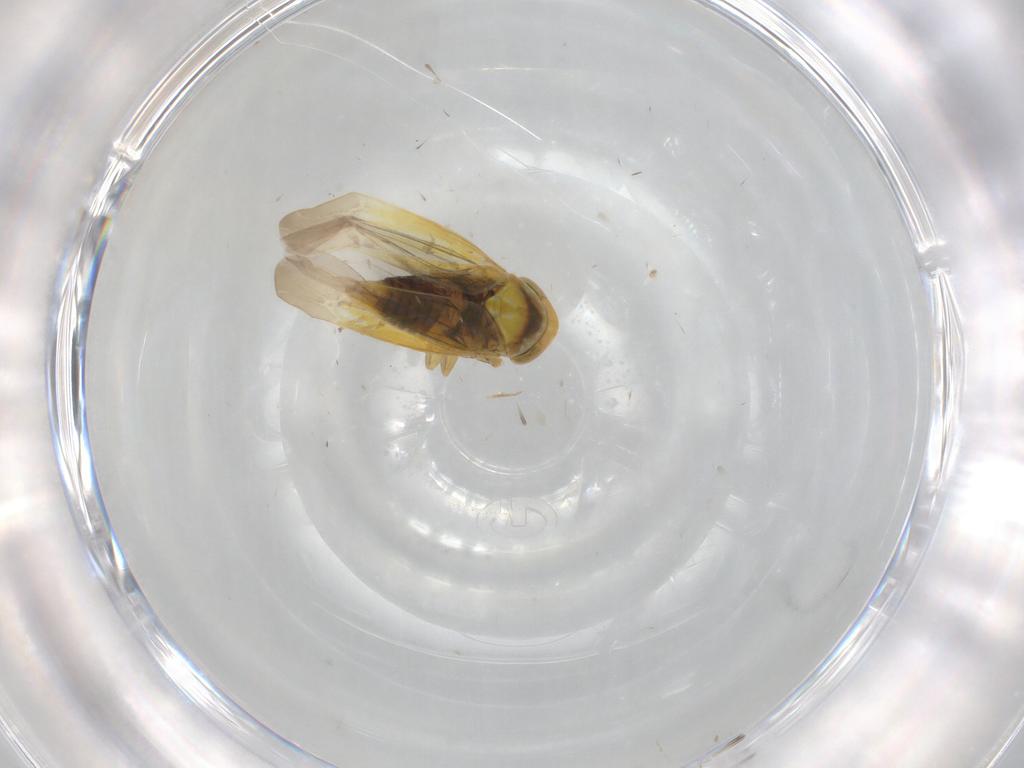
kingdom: Animalia
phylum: Arthropoda
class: Insecta
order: Hemiptera
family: Cicadellidae
